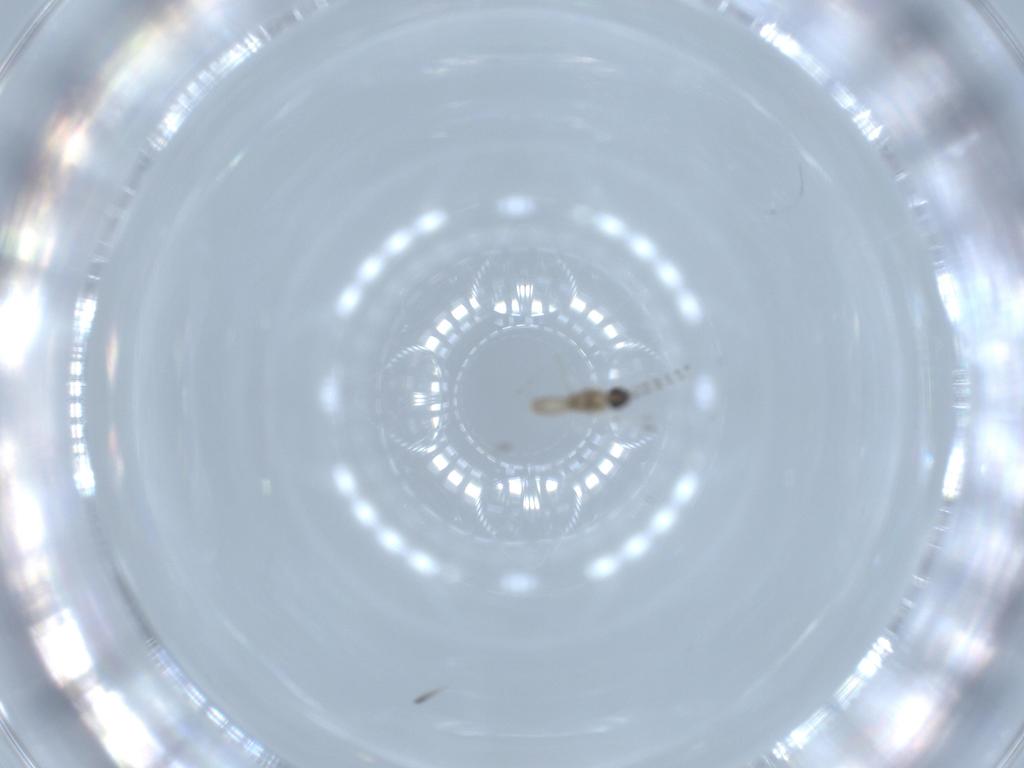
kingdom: Animalia
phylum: Arthropoda
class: Insecta
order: Diptera
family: Cecidomyiidae
